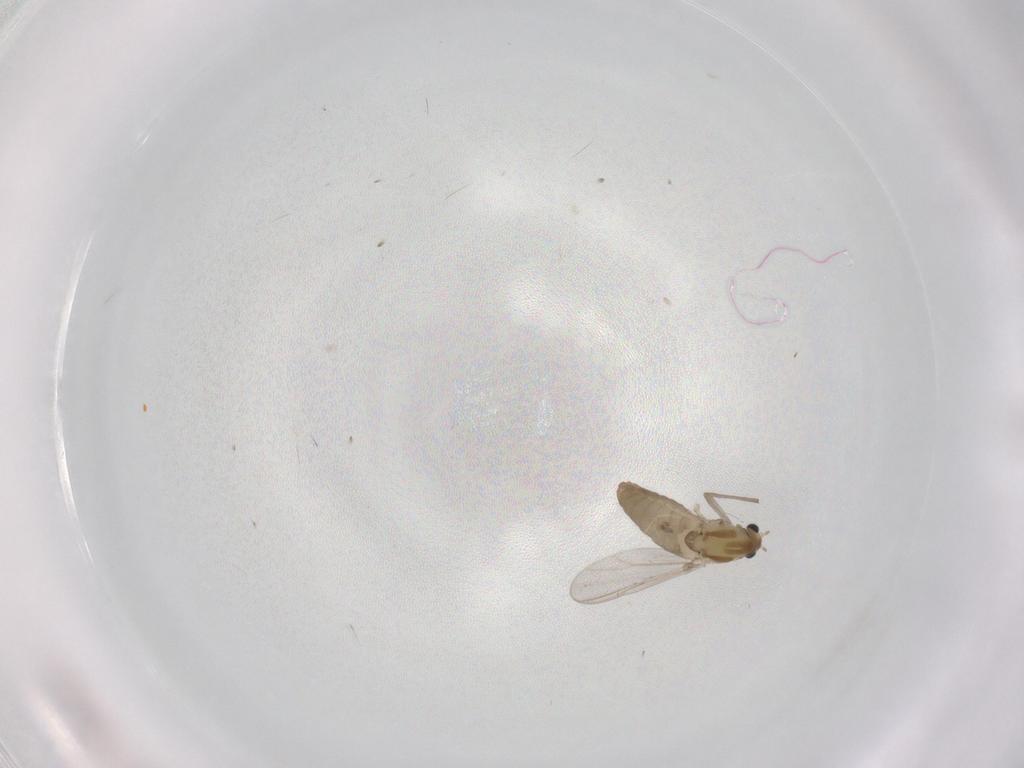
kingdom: Animalia
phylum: Arthropoda
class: Insecta
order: Diptera
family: Chironomidae
